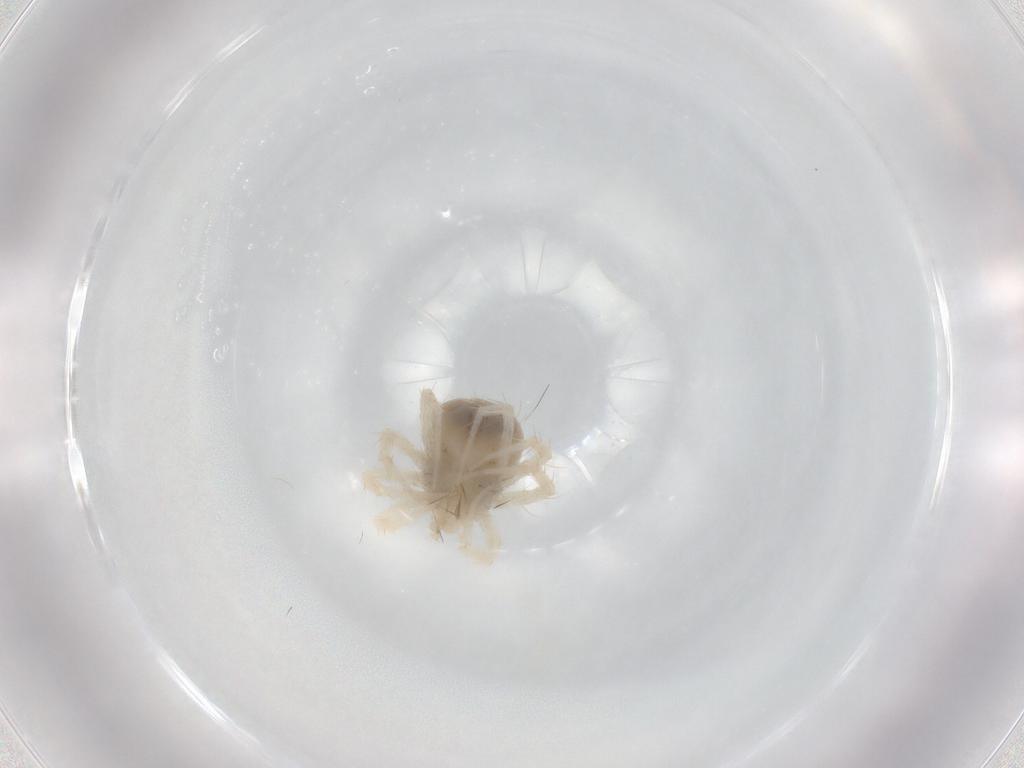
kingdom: Animalia
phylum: Arthropoda
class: Arachnida
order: Trombidiformes
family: Anystidae
